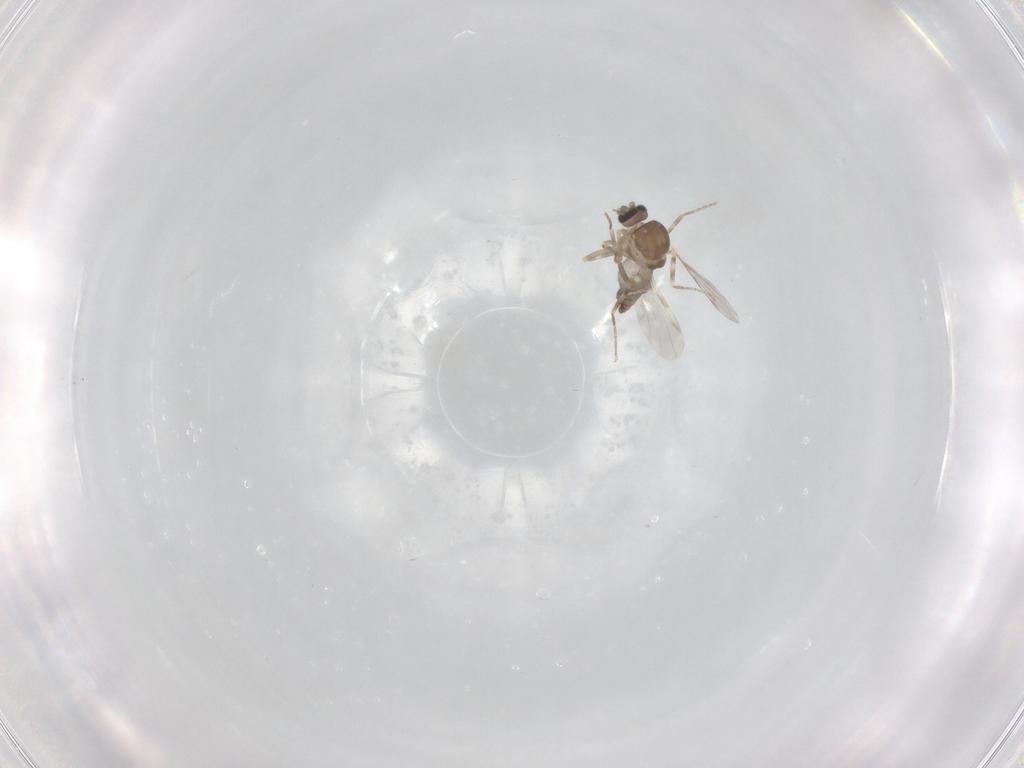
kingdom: Animalia
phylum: Arthropoda
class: Insecta
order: Diptera
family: Ceratopogonidae
